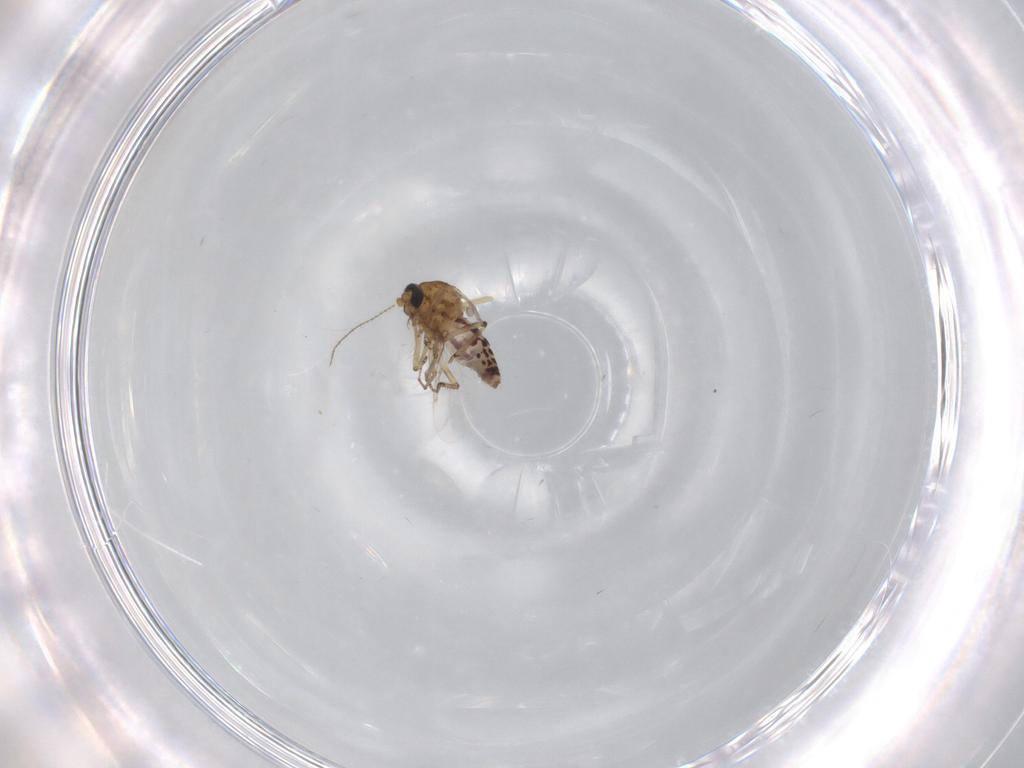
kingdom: Animalia
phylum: Arthropoda
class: Insecta
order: Diptera
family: Ceratopogonidae
